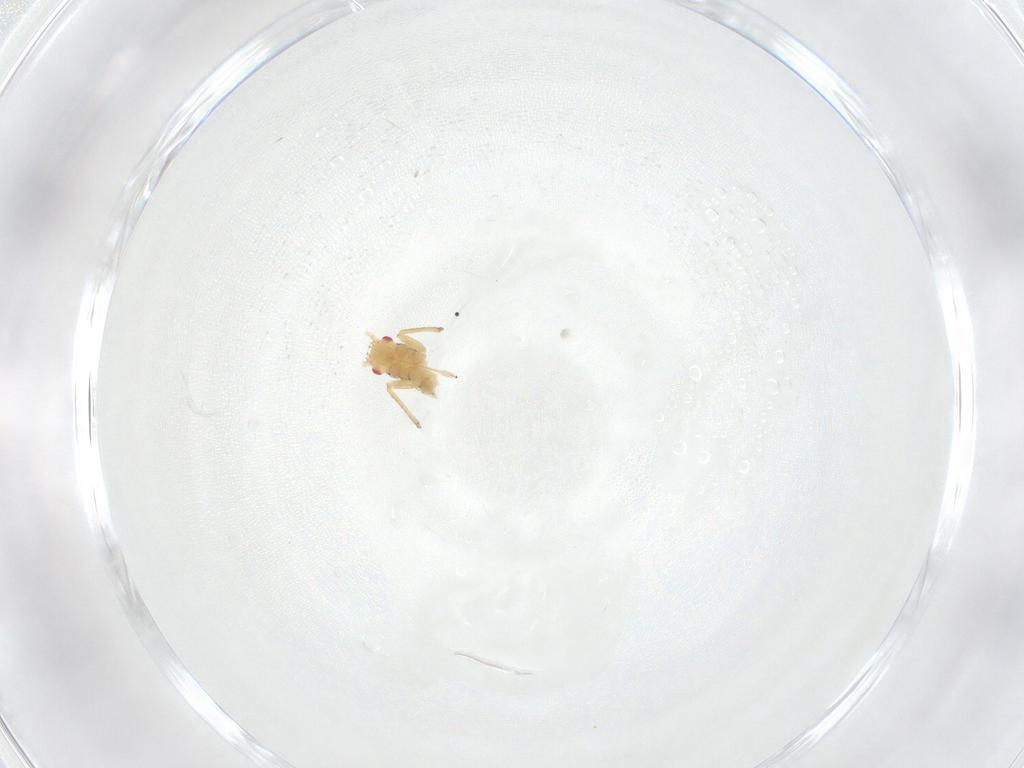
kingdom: Animalia
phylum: Arthropoda
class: Insecta
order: Hemiptera
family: Aphididae
